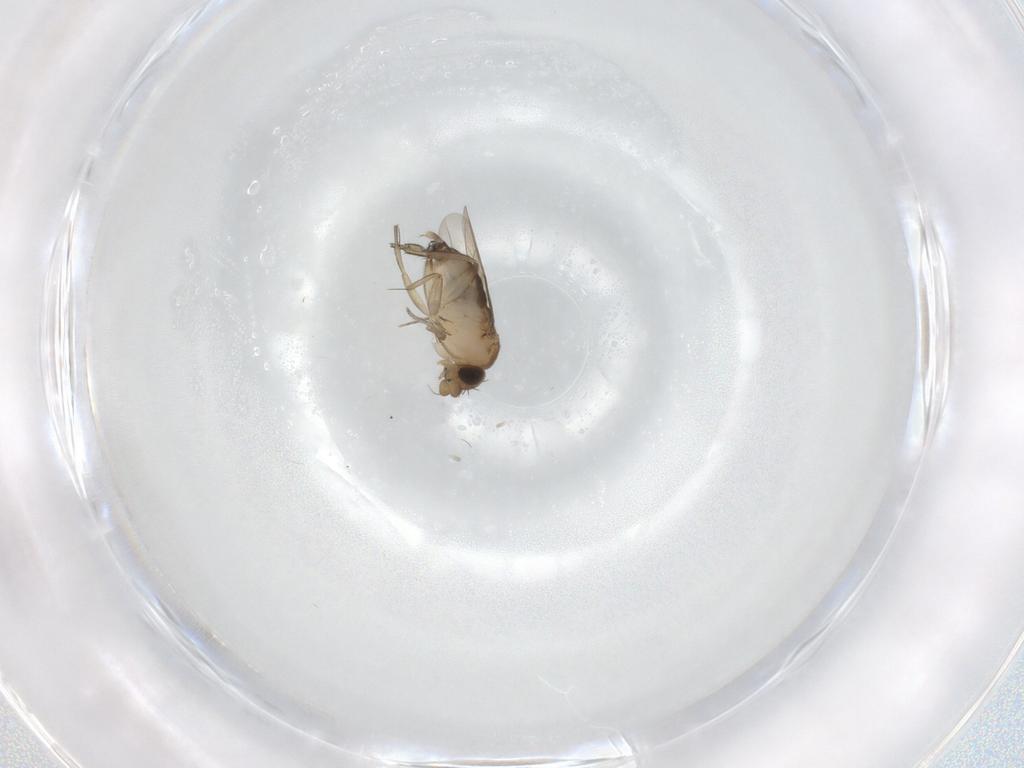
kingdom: Animalia
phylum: Arthropoda
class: Insecta
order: Diptera
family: Phoridae
